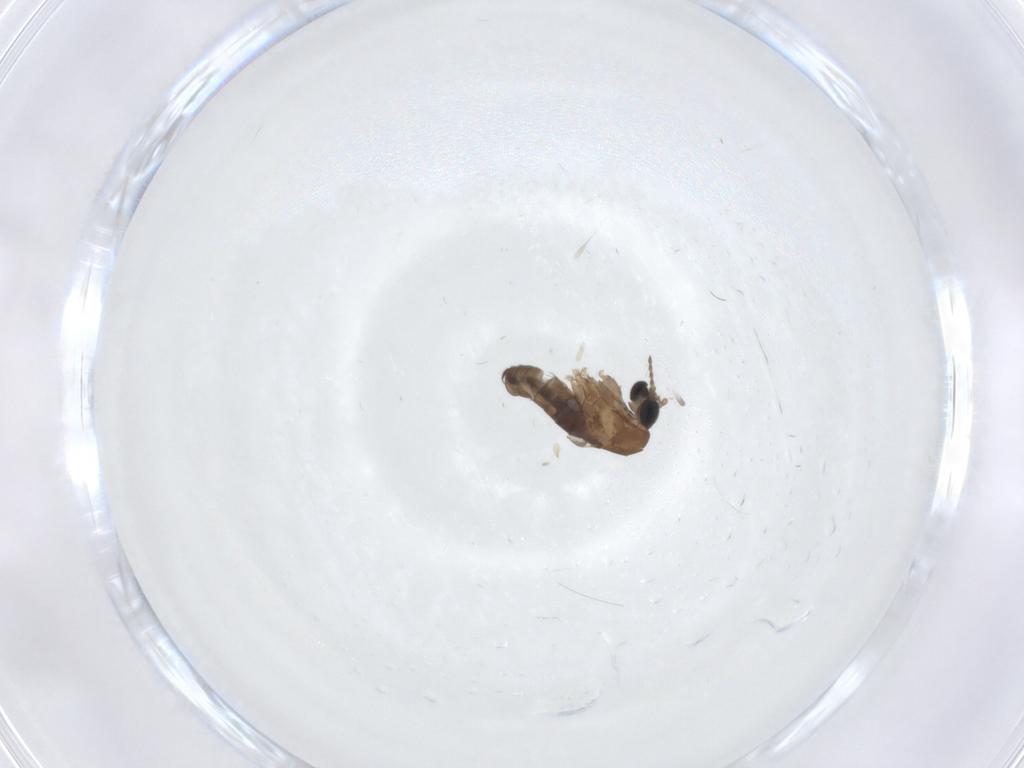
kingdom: Animalia
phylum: Arthropoda
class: Insecta
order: Diptera
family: Psychodidae
